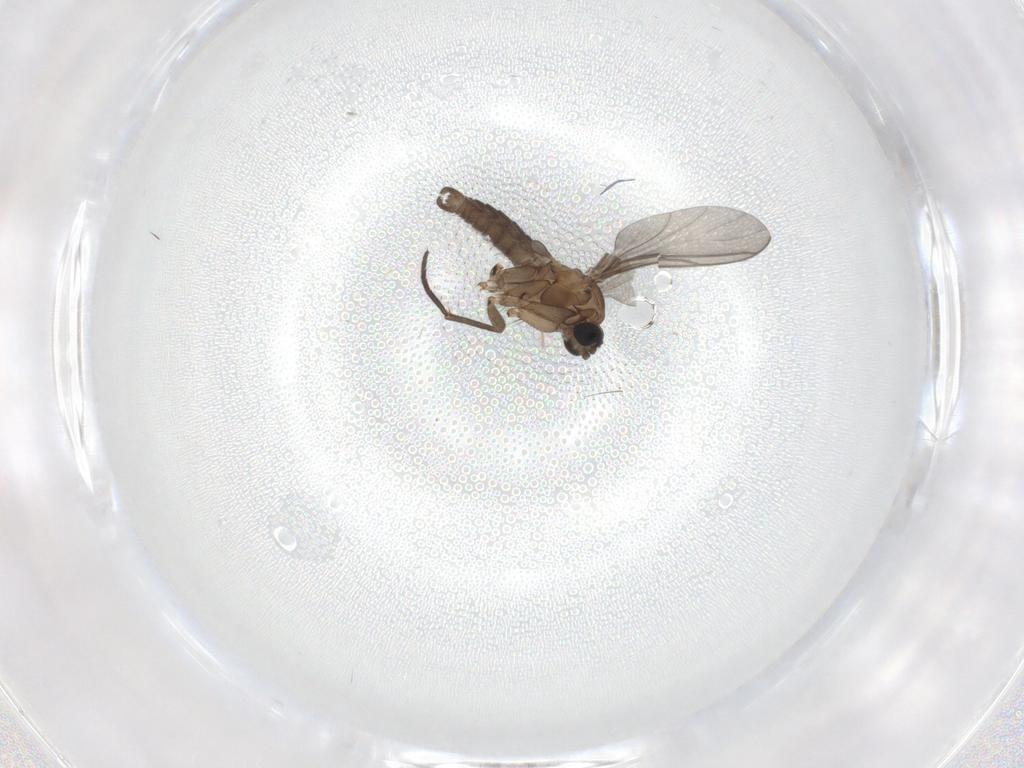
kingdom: Animalia
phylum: Arthropoda
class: Insecta
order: Diptera
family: Sciaridae
